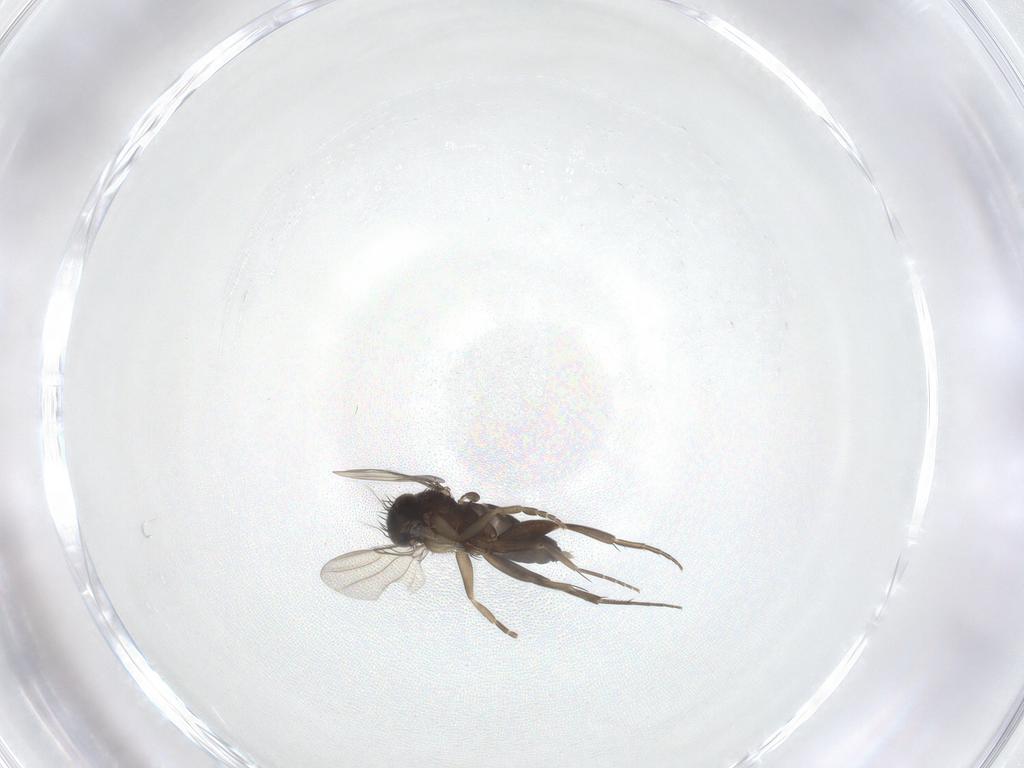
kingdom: Animalia
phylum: Arthropoda
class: Insecta
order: Diptera
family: Phoridae
